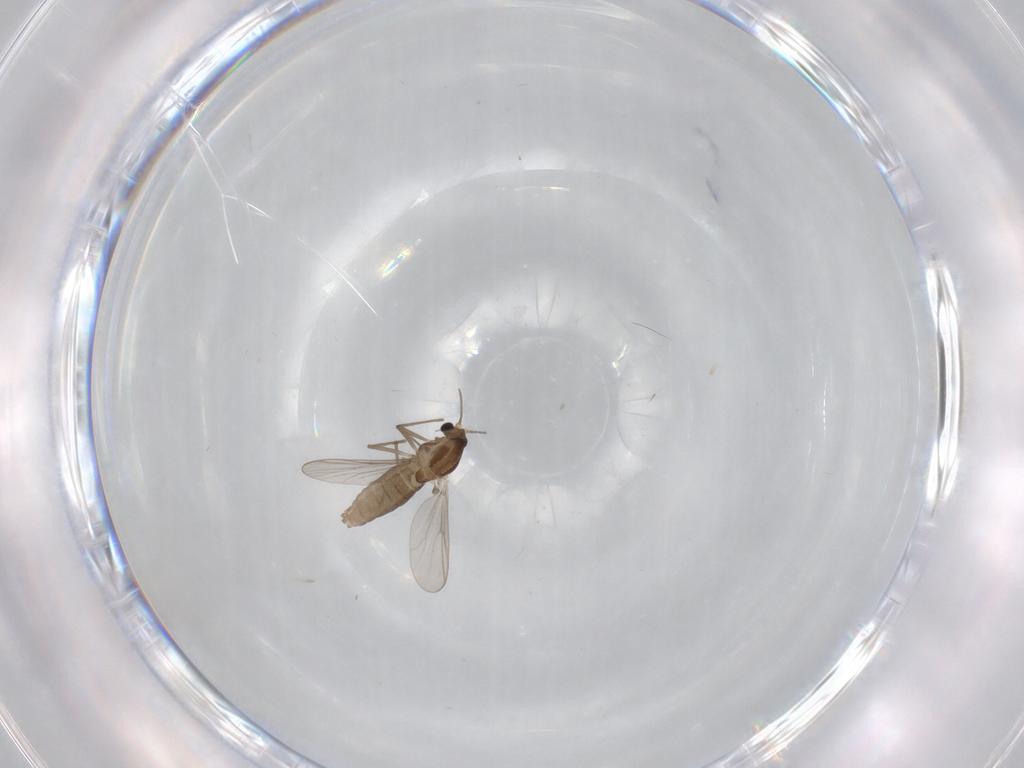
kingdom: Animalia
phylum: Arthropoda
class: Insecta
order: Diptera
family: Chironomidae
